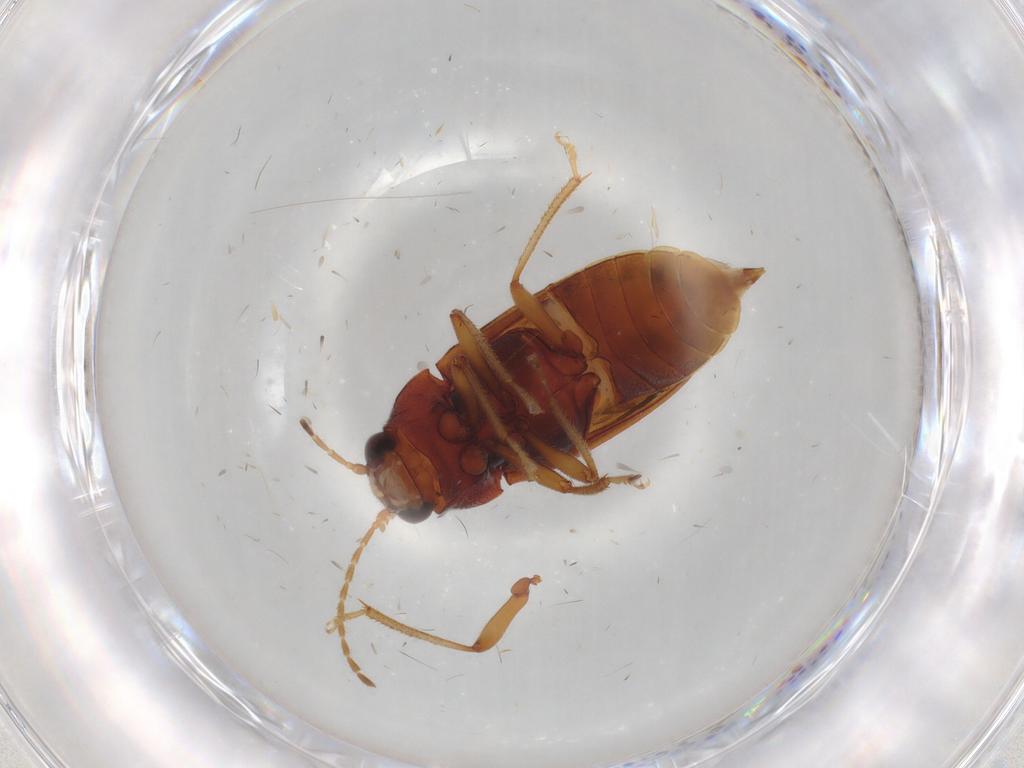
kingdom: Animalia
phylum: Arthropoda
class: Insecta
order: Coleoptera
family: Ptilodactylidae
